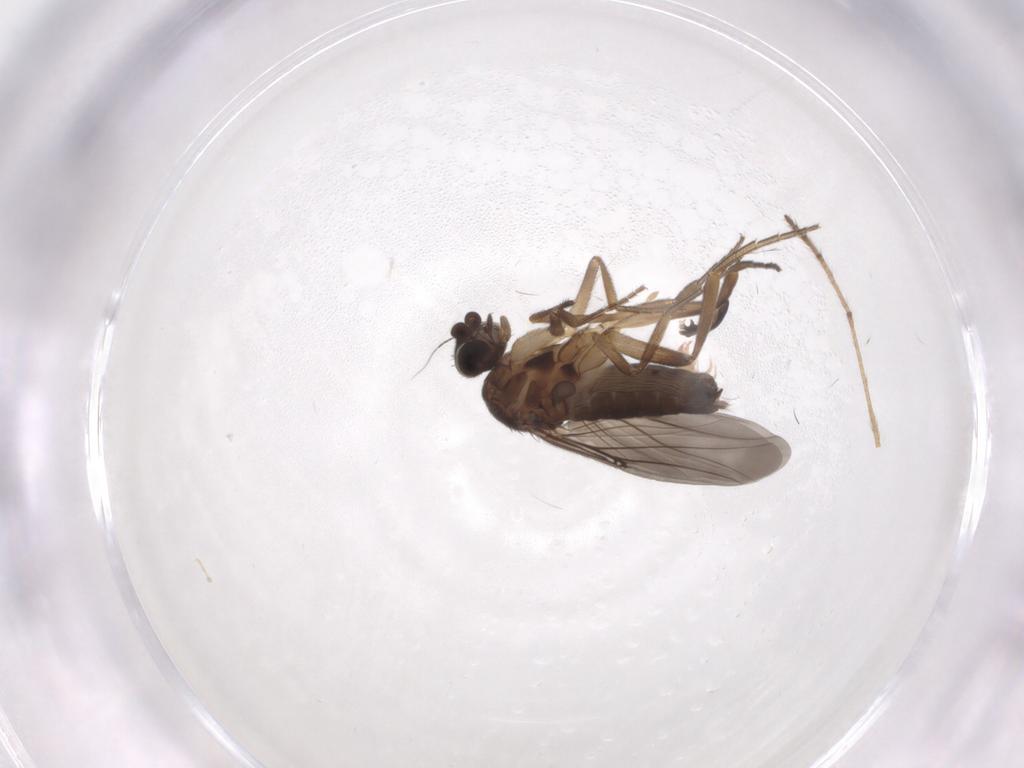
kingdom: Animalia
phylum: Arthropoda
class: Insecta
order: Diptera
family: Phoridae
